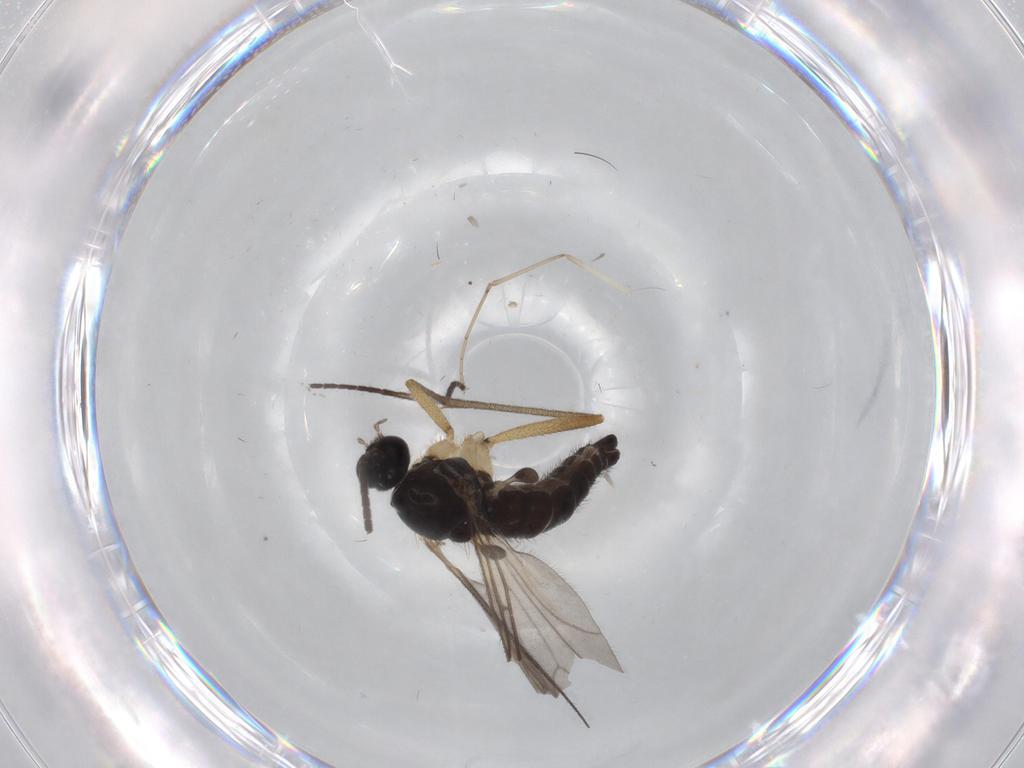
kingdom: Animalia
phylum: Arthropoda
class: Insecta
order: Diptera
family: Sciaridae
